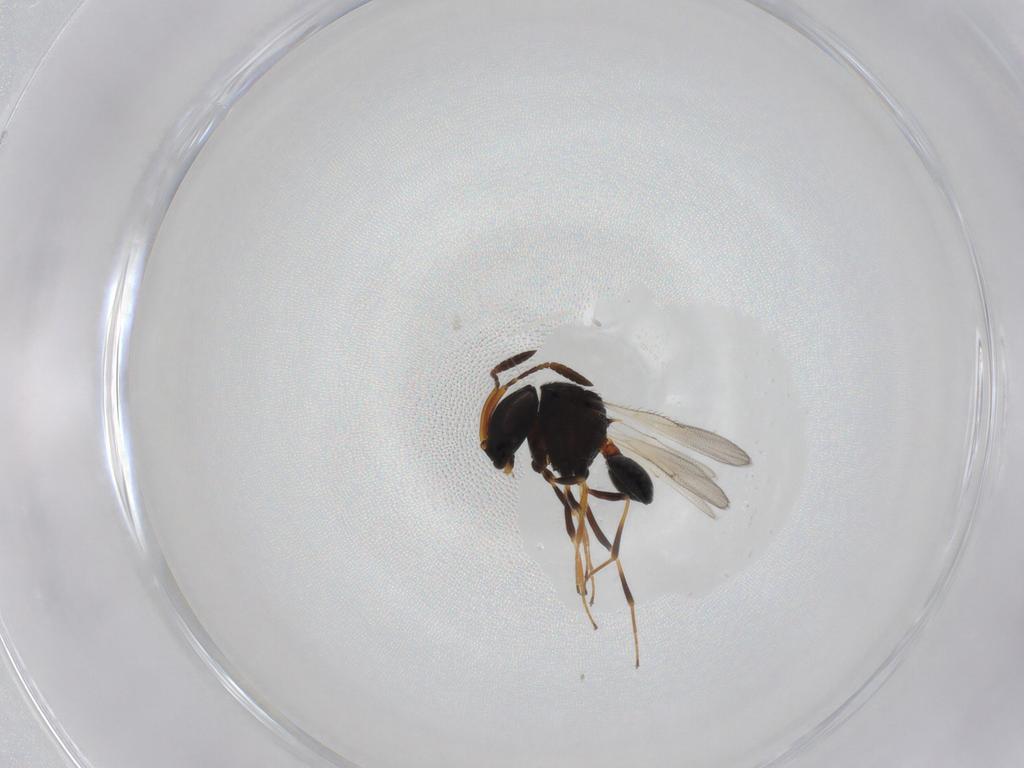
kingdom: Animalia
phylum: Arthropoda
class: Insecta
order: Hymenoptera
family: Scelionidae
